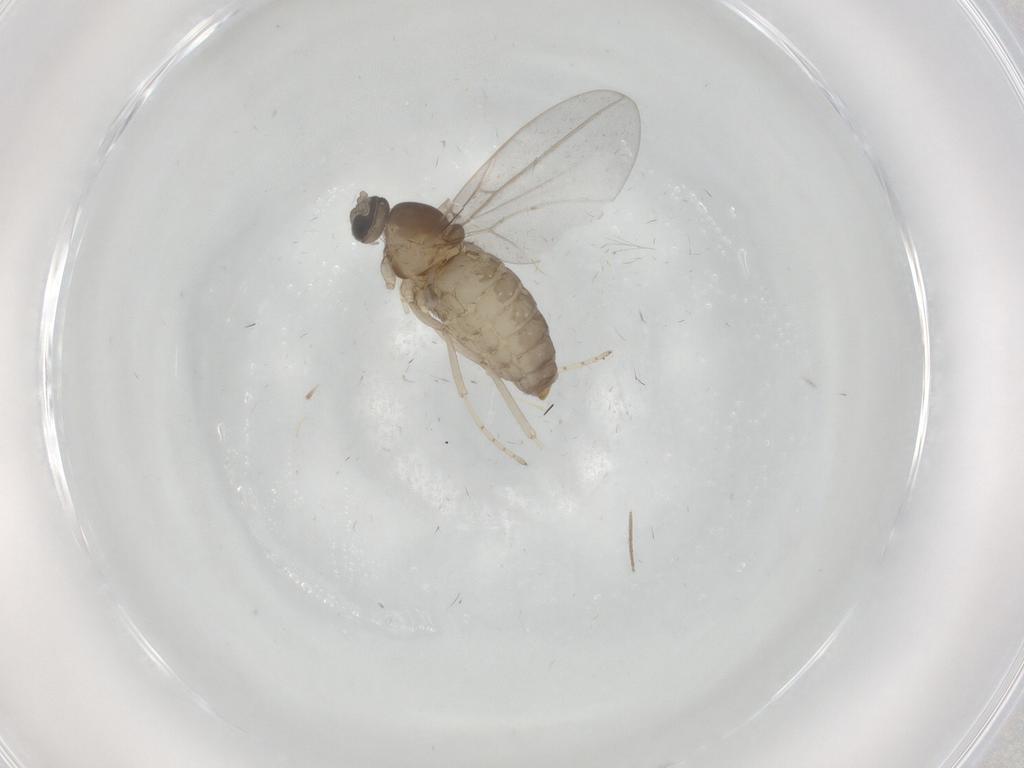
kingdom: Animalia
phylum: Arthropoda
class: Insecta
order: Diptera
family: Cecidomyiidae
